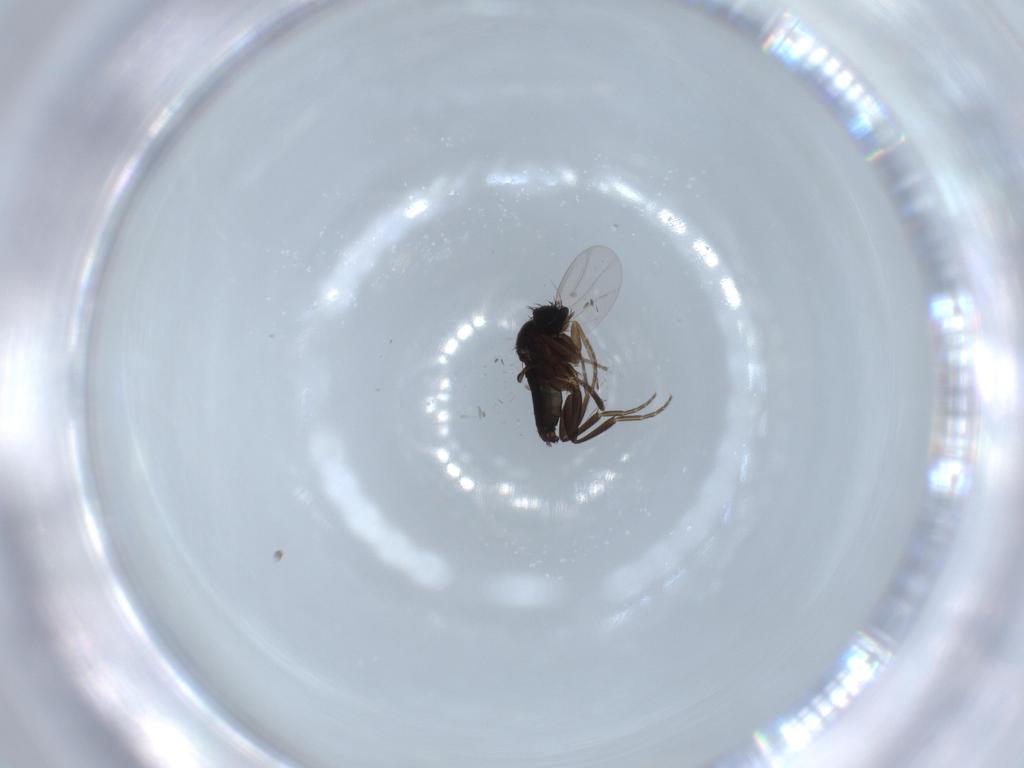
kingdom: Animalia
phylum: Arthropoda
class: Insecta
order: Diptera
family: Phoridae
